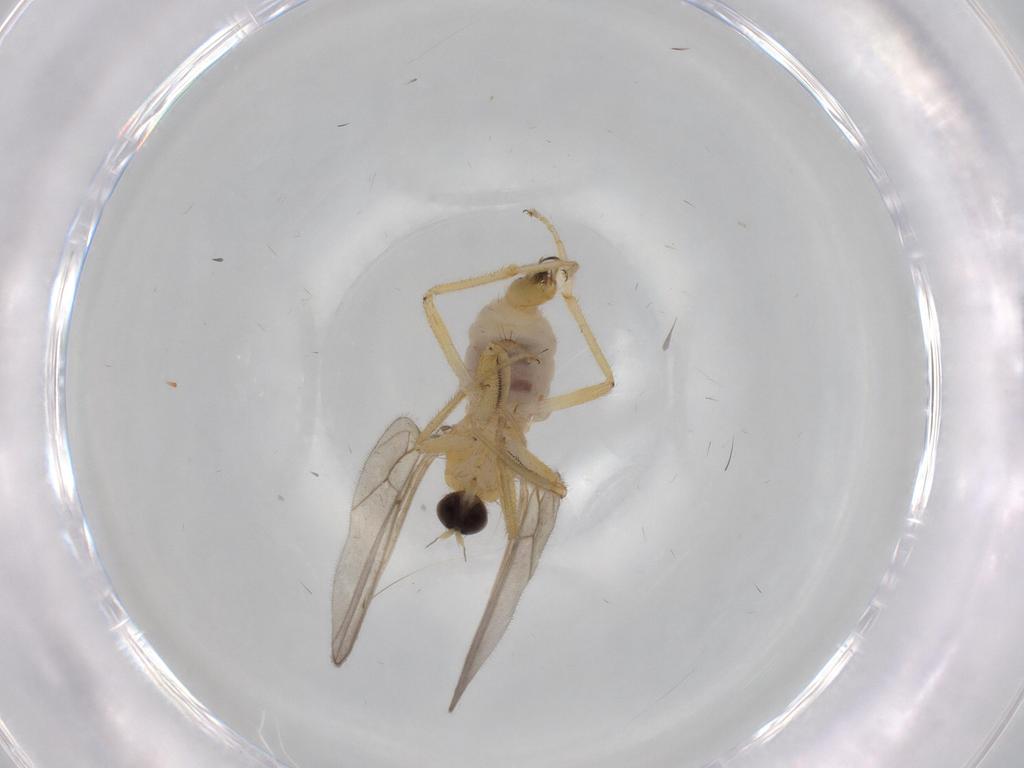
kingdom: Animalia
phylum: Arthropoda
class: Insecta
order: Diptera
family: Hybotidae
